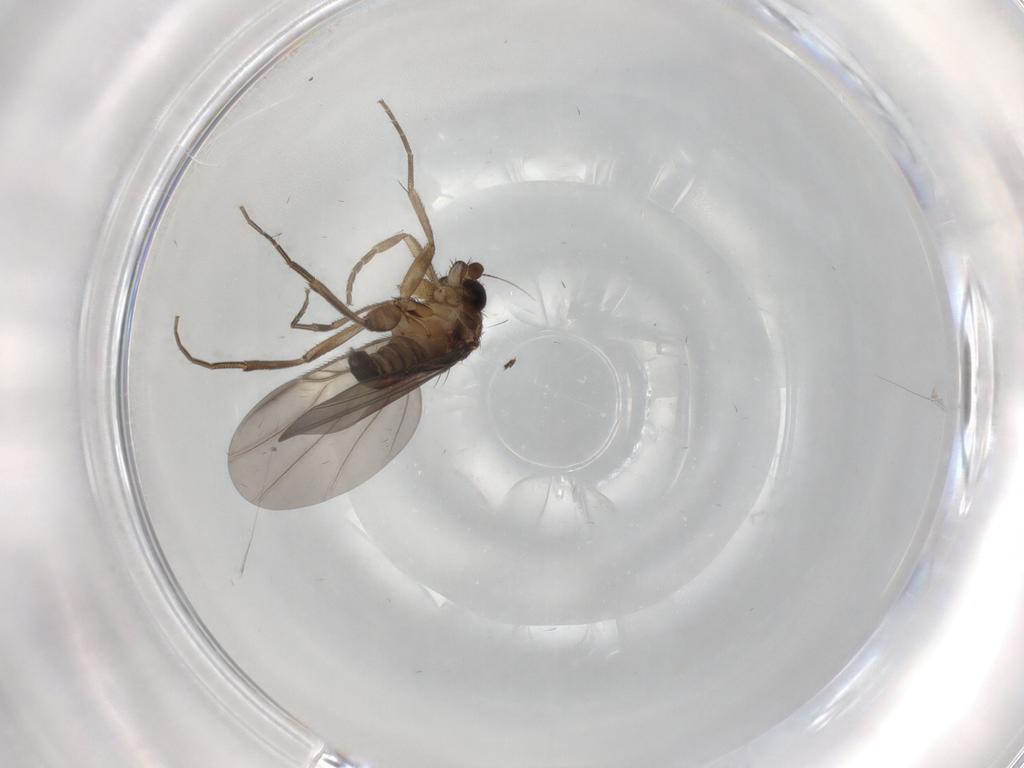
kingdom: Animalia
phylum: Arthropoda
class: Insecta
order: Diptera
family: Phoridae
